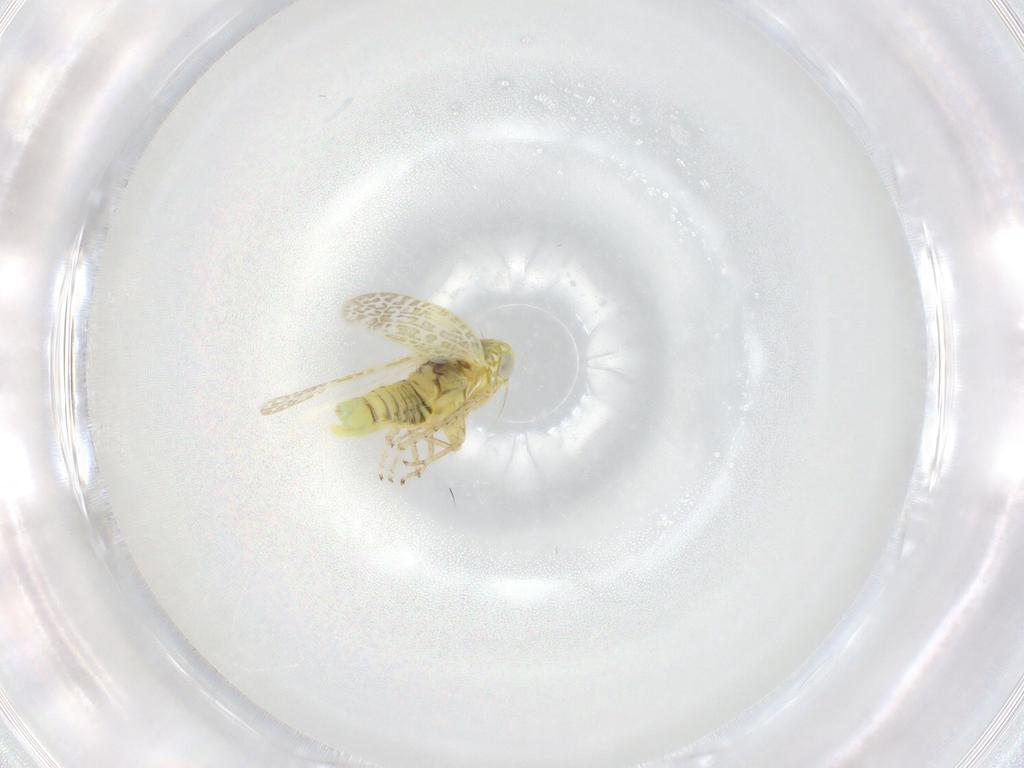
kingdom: Animalia
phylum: Arthropoda
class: Insecta
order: Hemiptera
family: Cicadellidae
